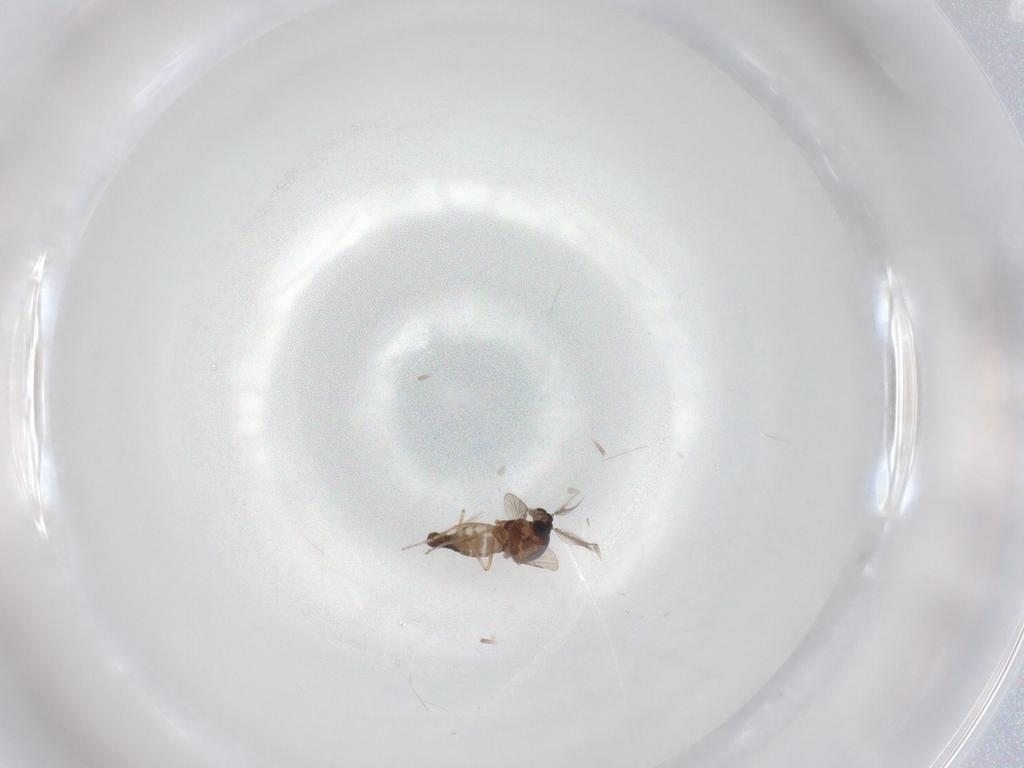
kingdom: Animalia
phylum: Arthropoda
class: Insecta
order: Diptera
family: Ceratopogonidae
